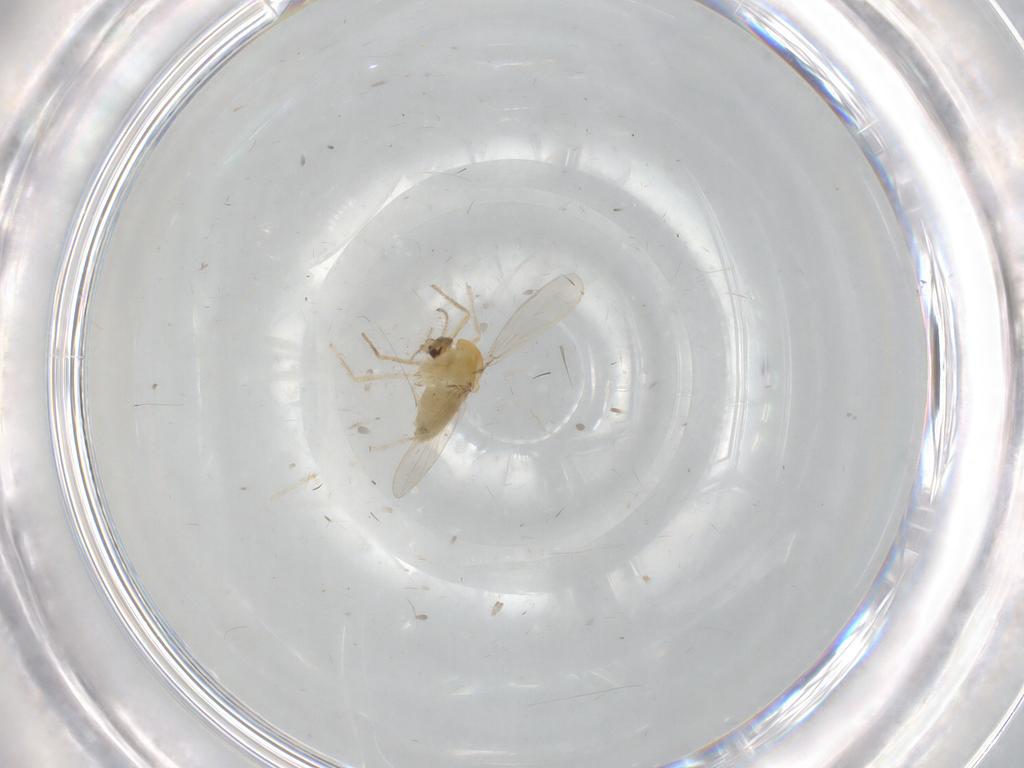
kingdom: Animalia
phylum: Arthropoda
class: Insecta
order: Diptera
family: Chironomidae
